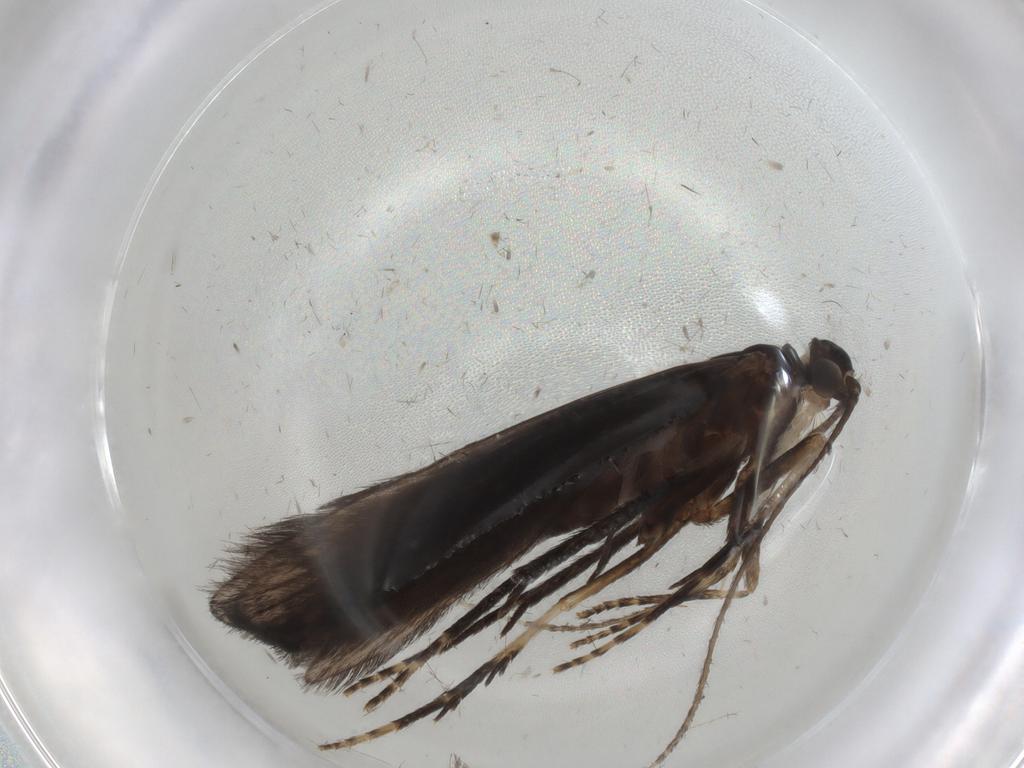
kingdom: Animalia
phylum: Arthropoda
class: Insecta
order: Trichoptera
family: Xiphocentronidae
